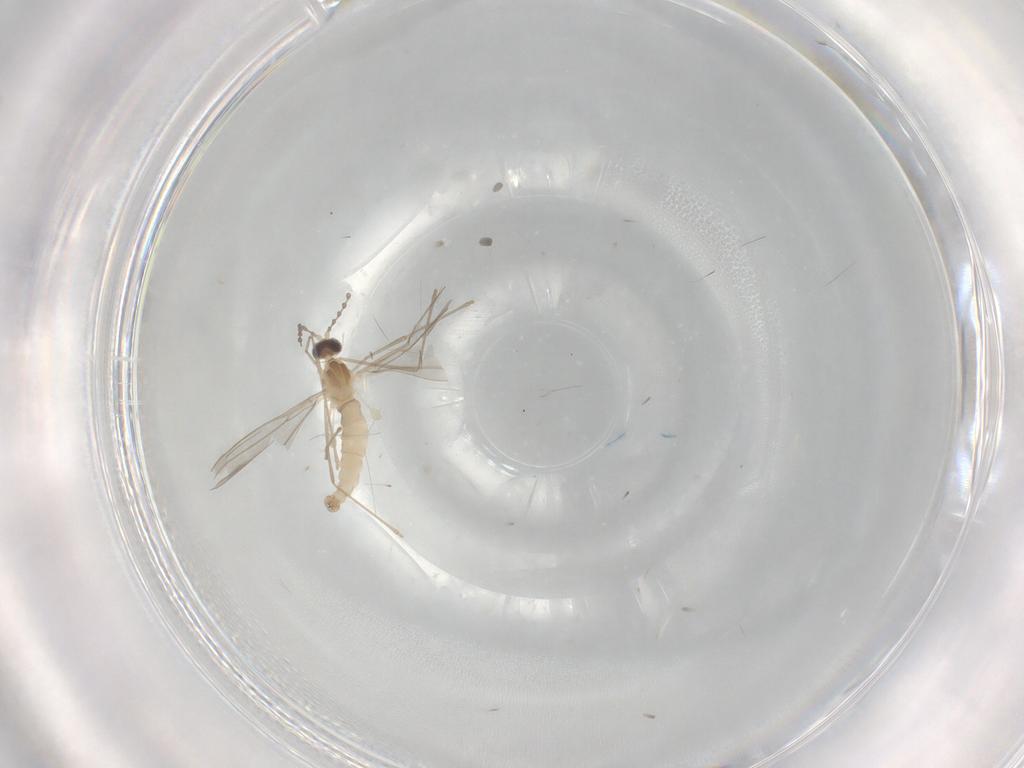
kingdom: Animalia
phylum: Arthropoda
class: Insecta
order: Diptera
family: Cecidomyiidae
